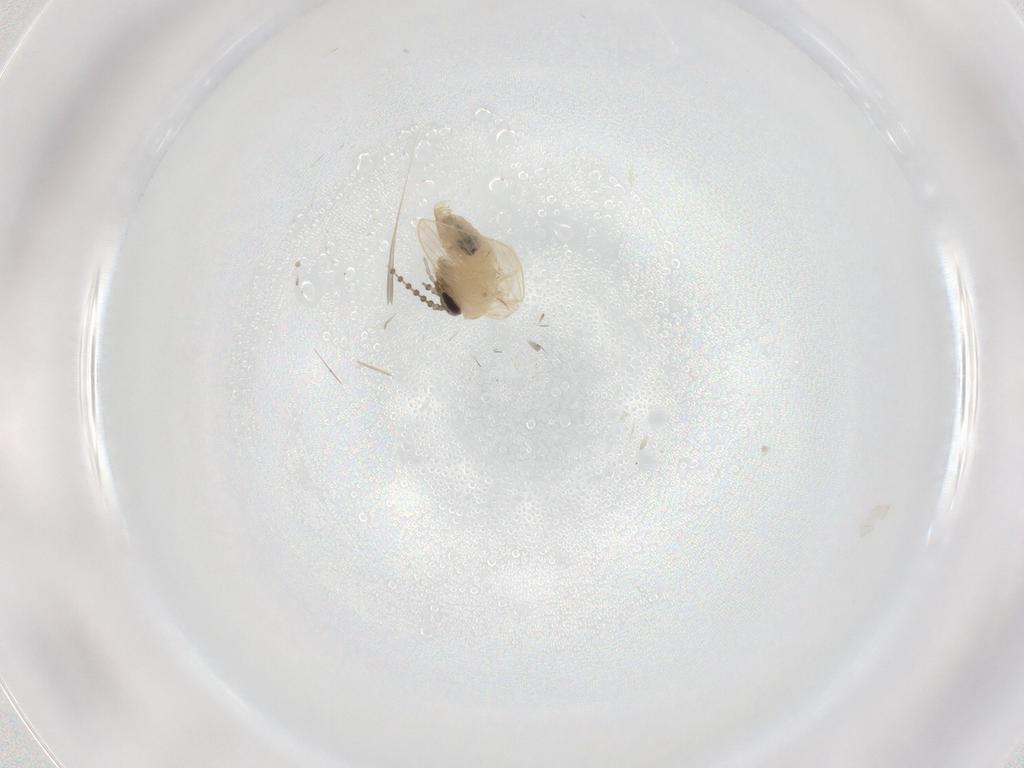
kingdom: Animalia
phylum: Arthropoda
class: Insecta
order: Diptera
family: Psychodidae
